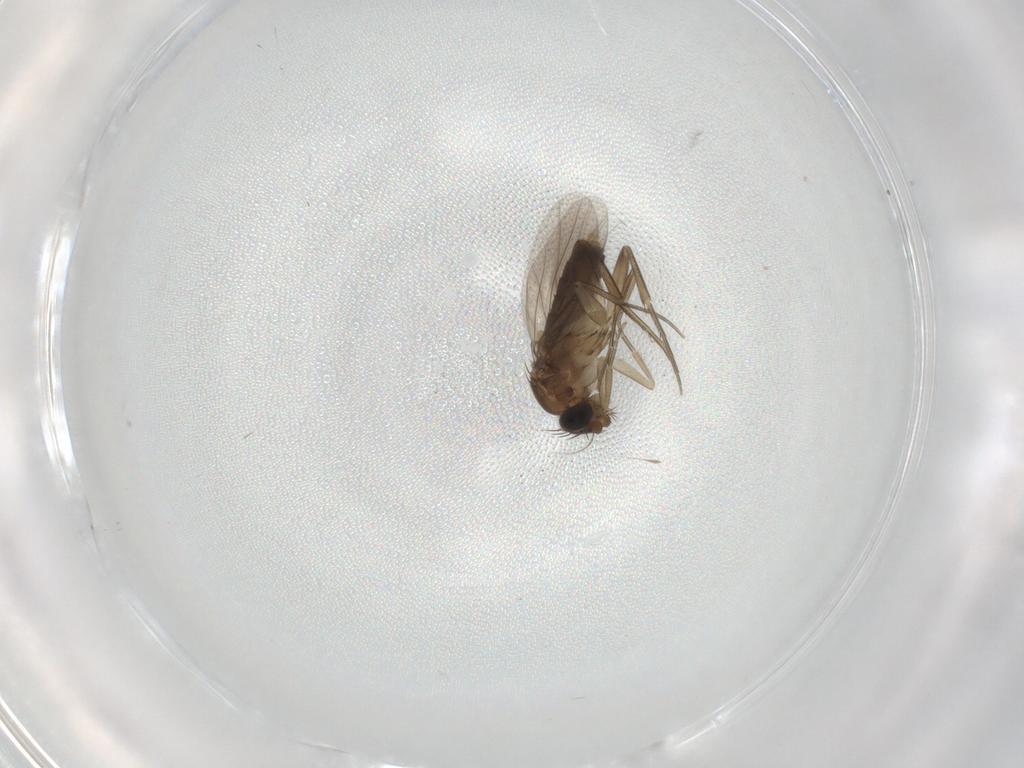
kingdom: Animalia
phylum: Arthropoda
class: Insecta
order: Diptera
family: Phoridae
